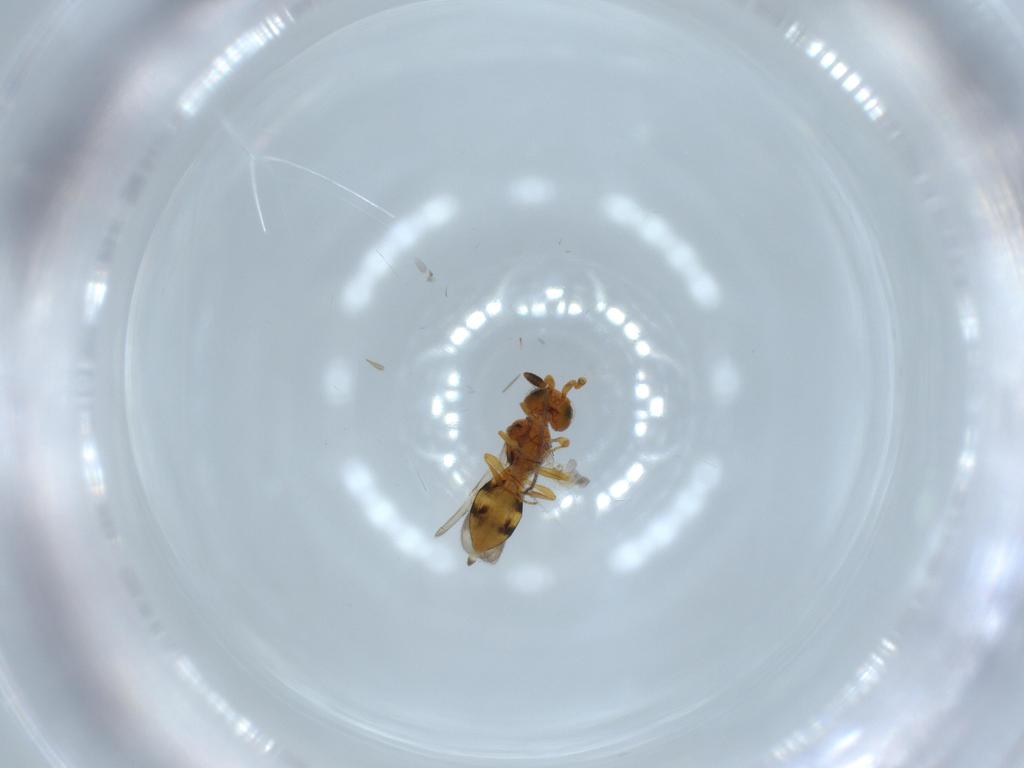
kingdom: Animalia
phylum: Arthropoda
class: Insecta
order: Hymenoptera
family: Scelionidae
